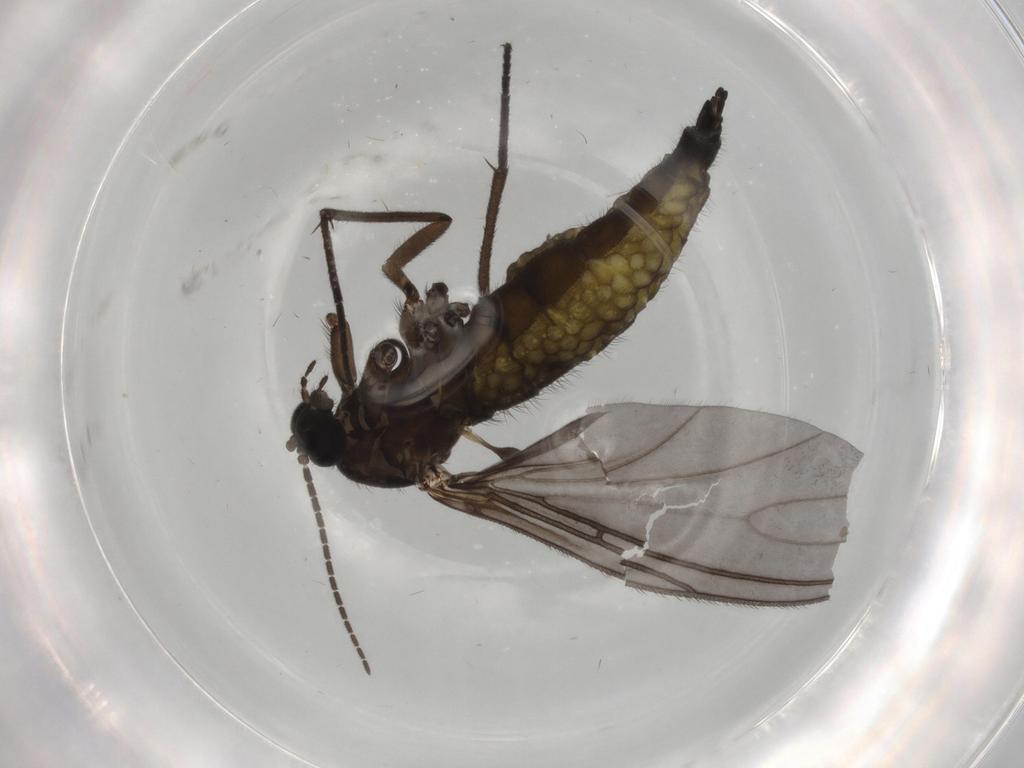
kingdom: Animalia
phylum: Arthropoda
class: Insecta
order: Diptera
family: Sciaridae
